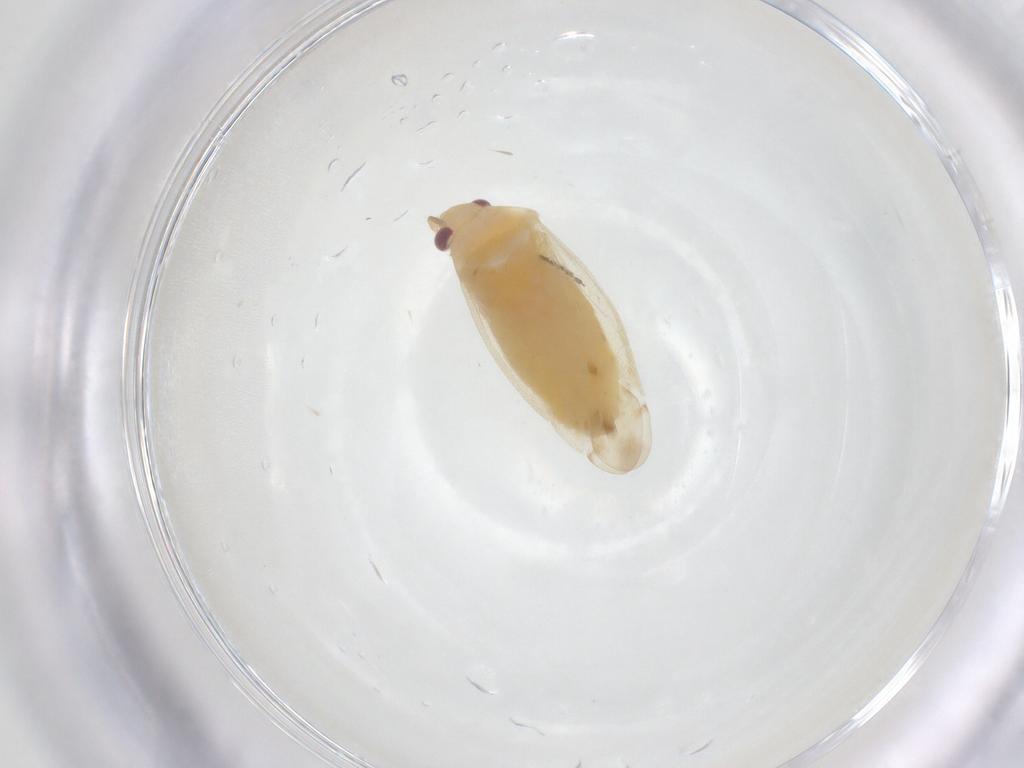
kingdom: Animalia
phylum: Arthropoda
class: Insecta
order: Hemiptera
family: Miridae
